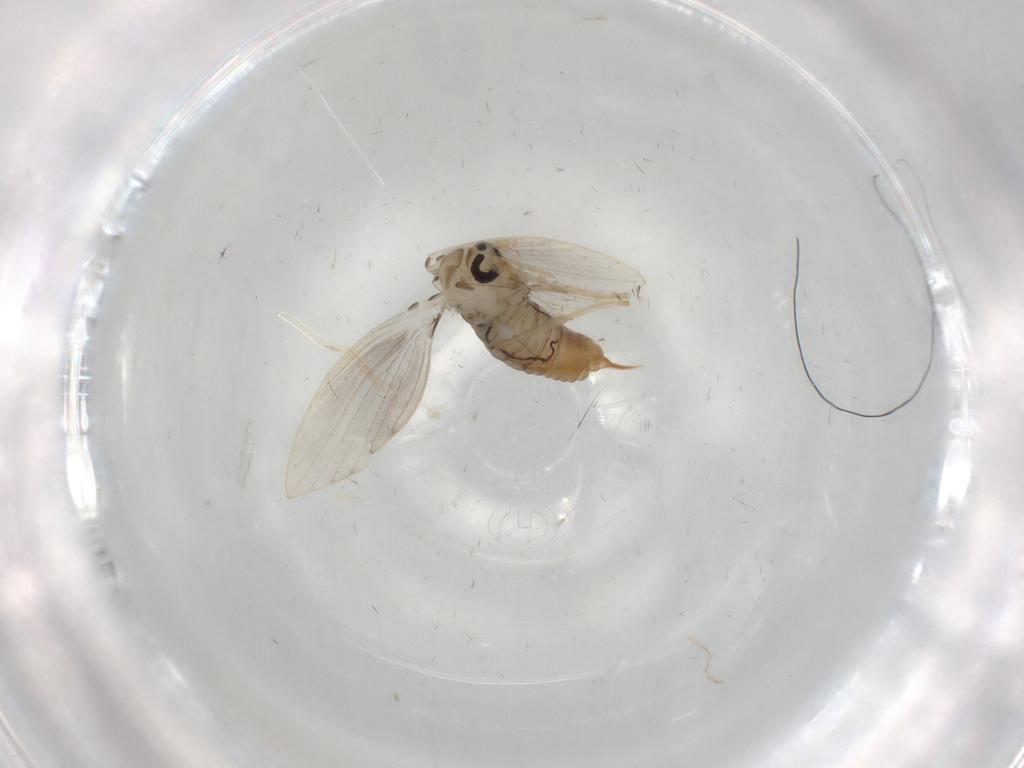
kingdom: Animalia
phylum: Arthropoda
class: Insecta
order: Diptera
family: Psychodidae
